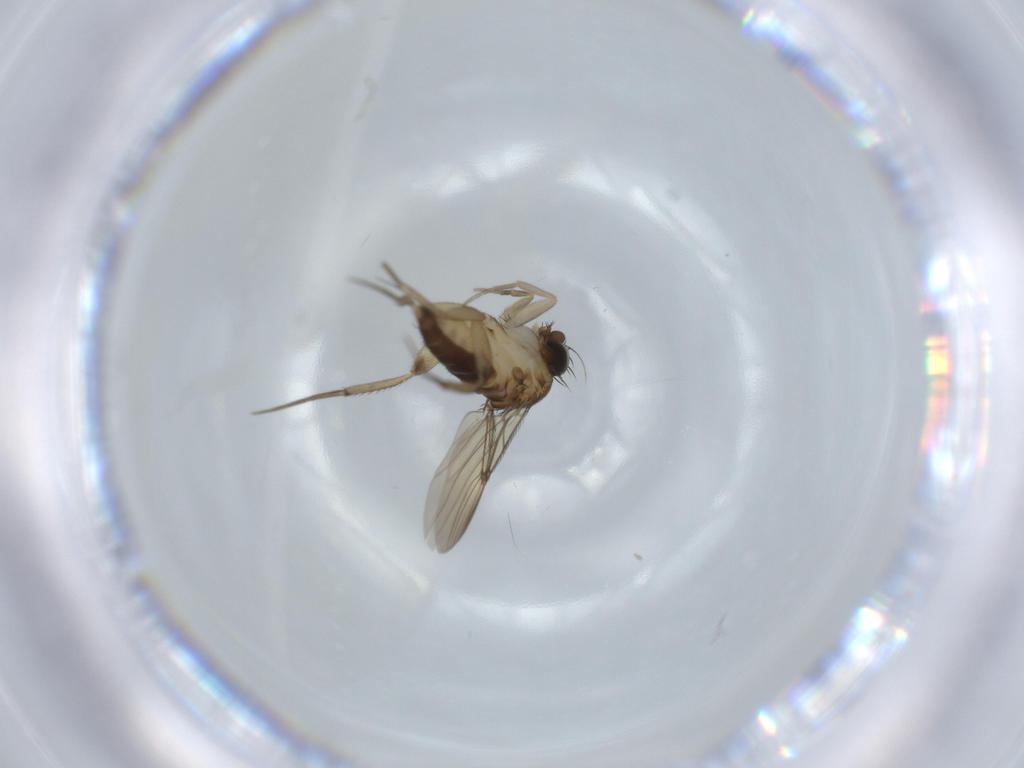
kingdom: Animalia
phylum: Arthropoda
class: Insecta
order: Diptera
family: Phoridae
